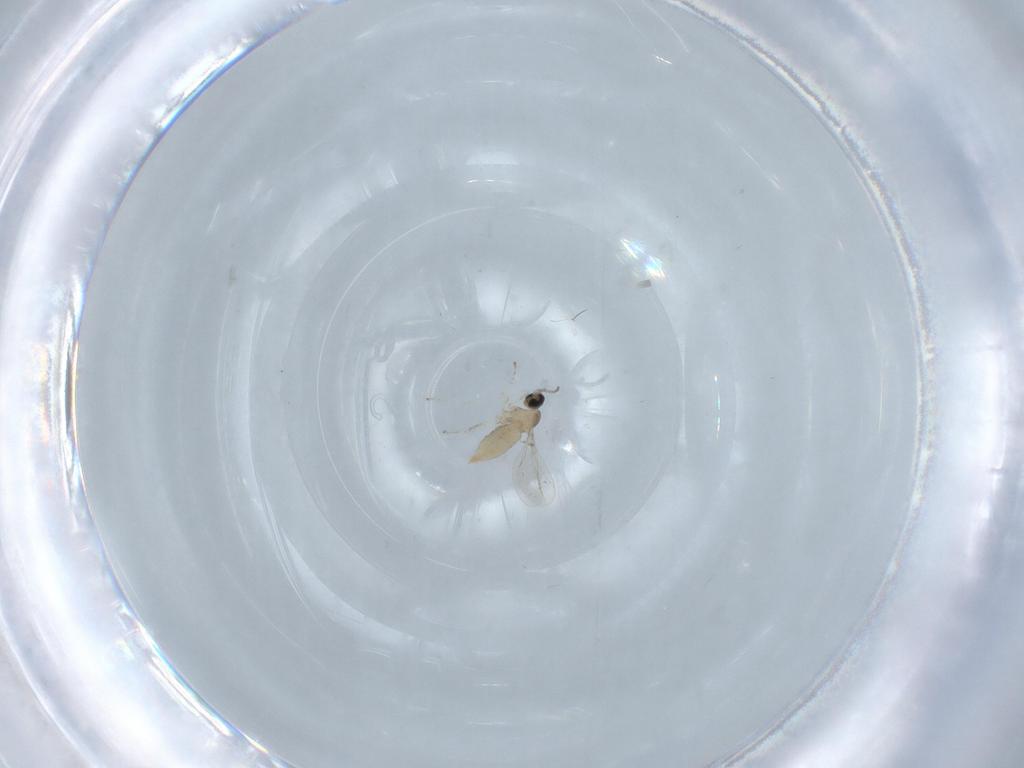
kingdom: Animalia
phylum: Arthropoda
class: Insecta
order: Diptera
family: Cecidomyiidae
